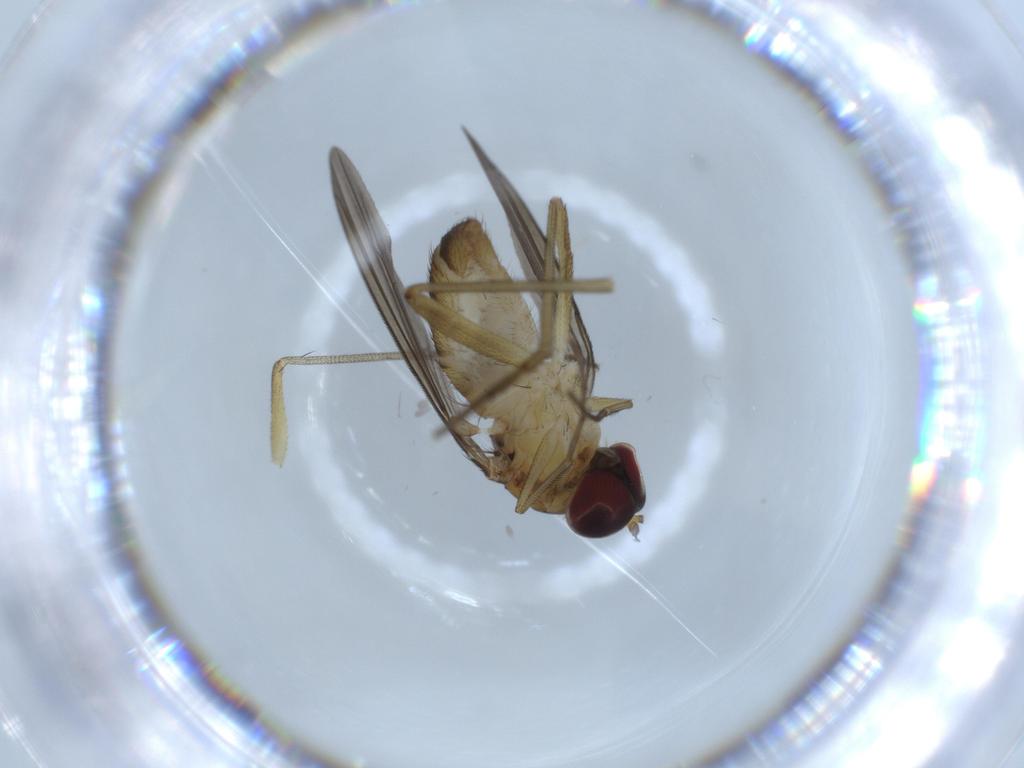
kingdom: Animalia
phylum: Arthropoda
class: Insecta
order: Diptera
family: Dolichopodidae
